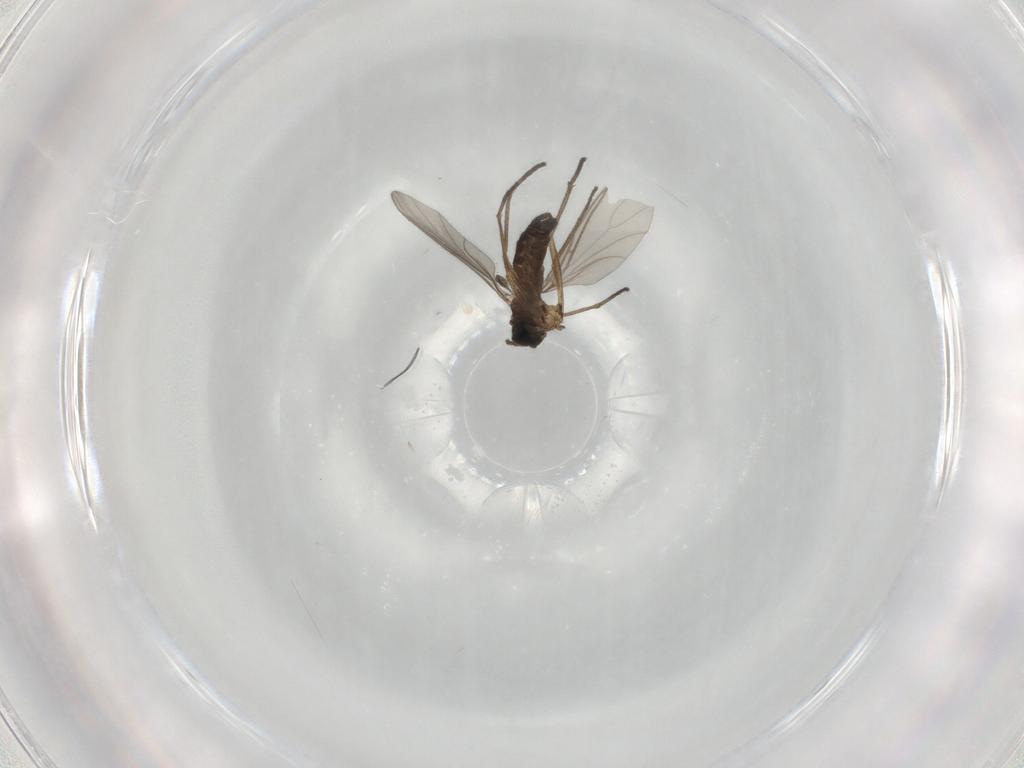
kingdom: Animalia
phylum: Arthropoda
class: Insecta
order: Diptera
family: Sciaridae
